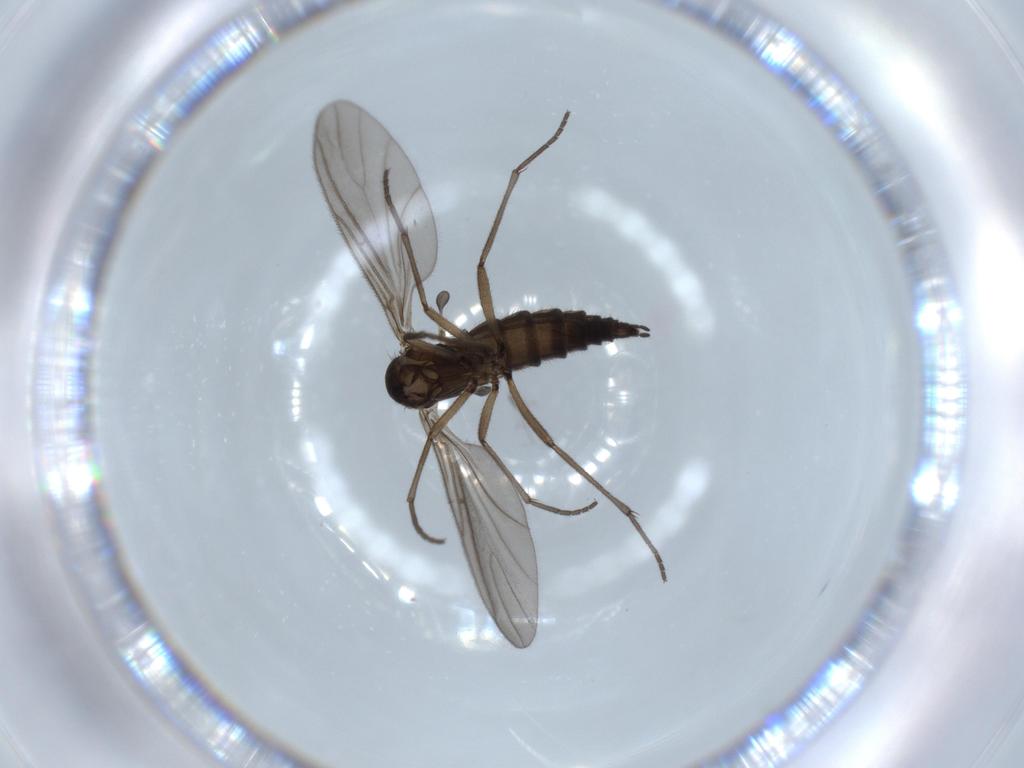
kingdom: Animalia
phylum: Arthropoda
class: Insecta
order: Diptera
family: Sciaridae
